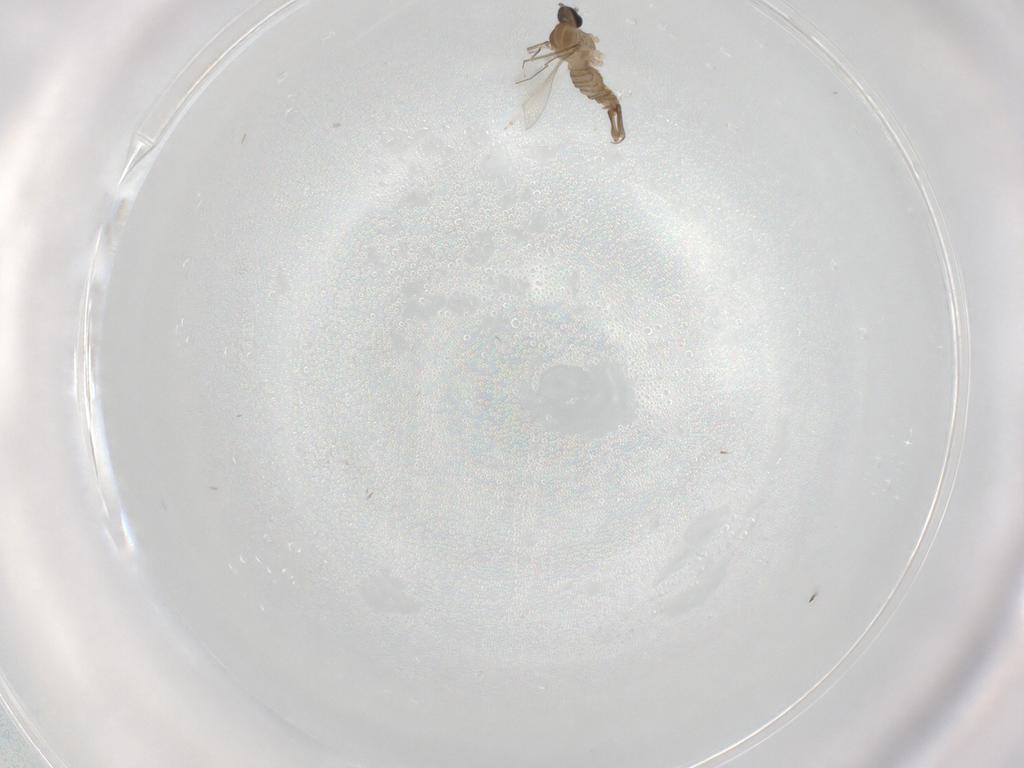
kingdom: Animalia
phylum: Arthropoda
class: Insecta
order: Diptera
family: Cecidomyiidae
